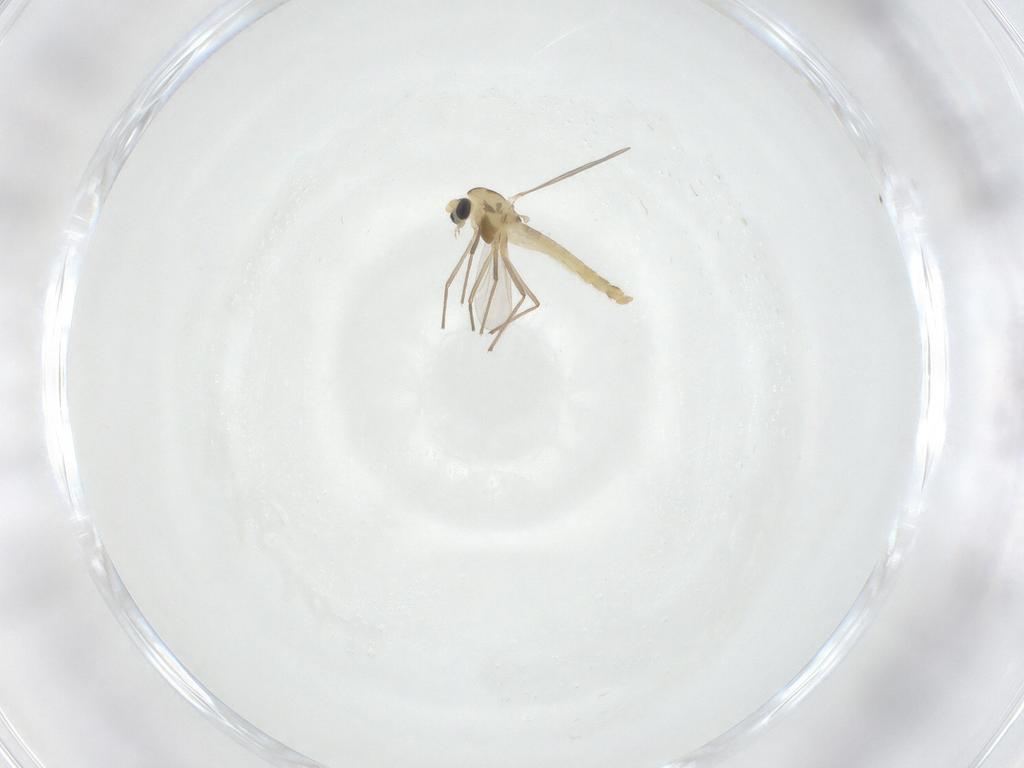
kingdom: Animalia
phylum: Arthropoda
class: Insecta
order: Diptera
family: Chironomidae
